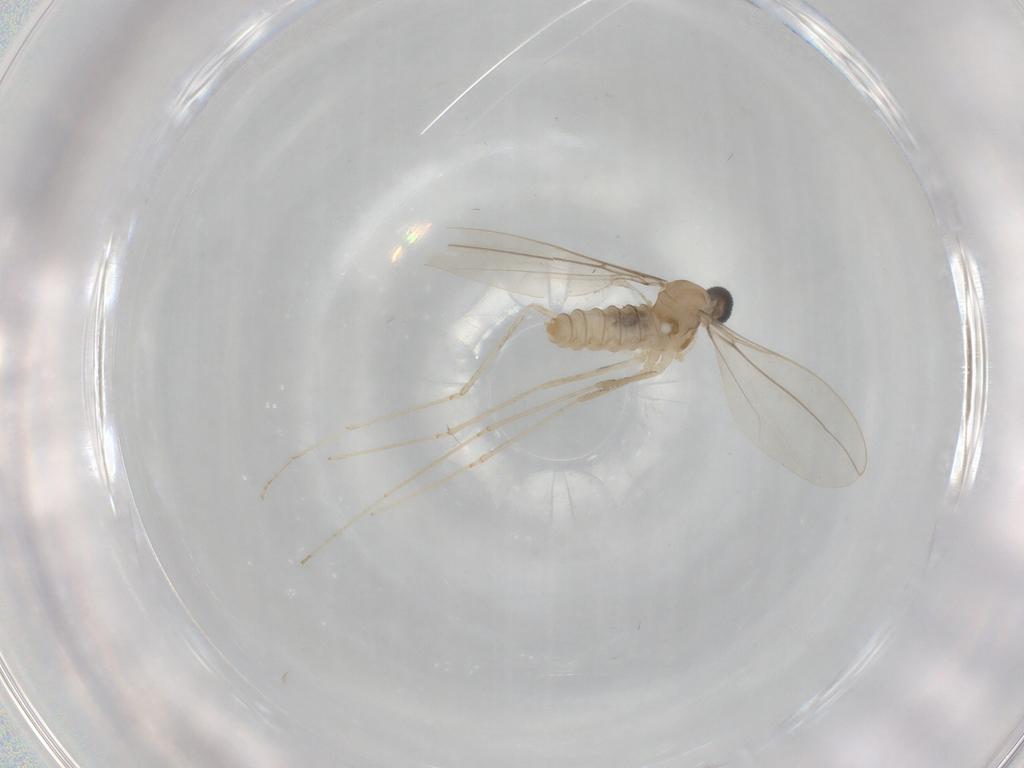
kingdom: Animalia
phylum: Arthropoda
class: Insecta
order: Diptera
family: Cecidomyiidae
